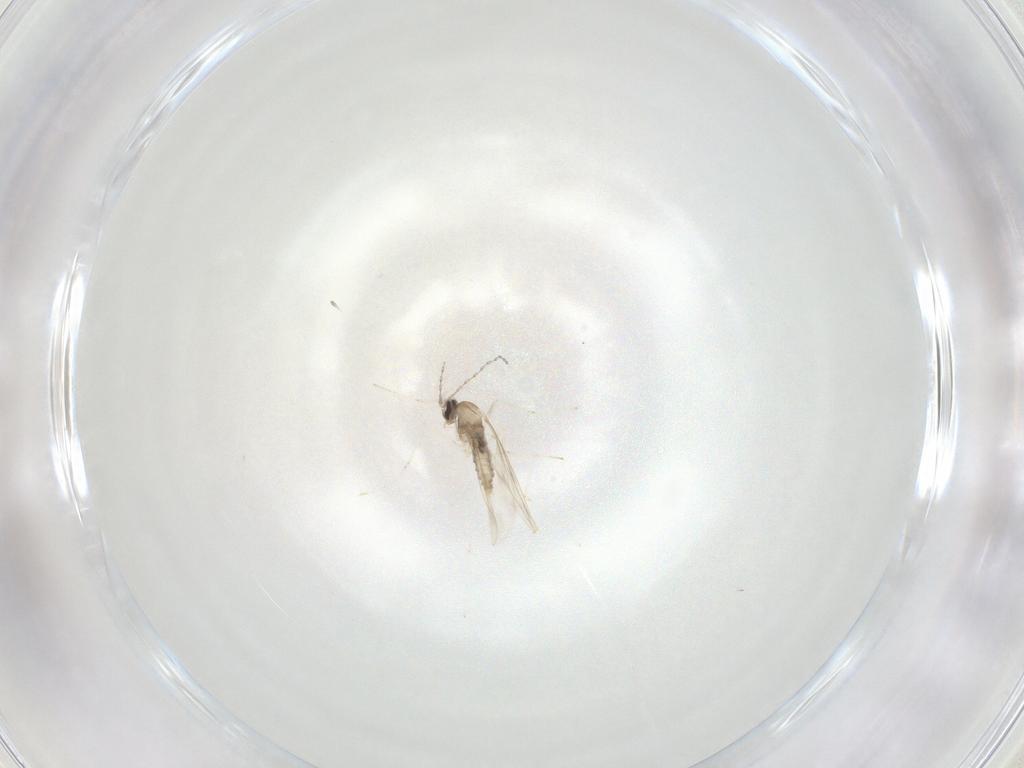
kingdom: Animalia
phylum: Arthropoda
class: Insecta
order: Diptera
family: Cecidomyiidae
